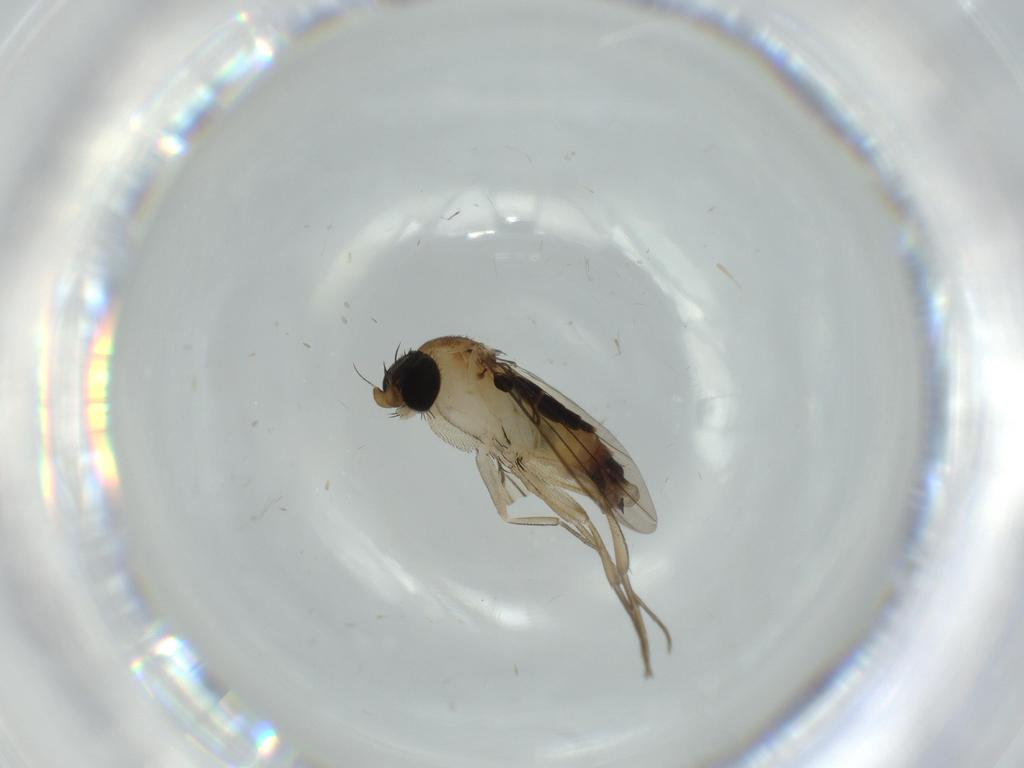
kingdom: Animalia
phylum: Arthropoda
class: Insecta
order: Diptera
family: Phoridae
